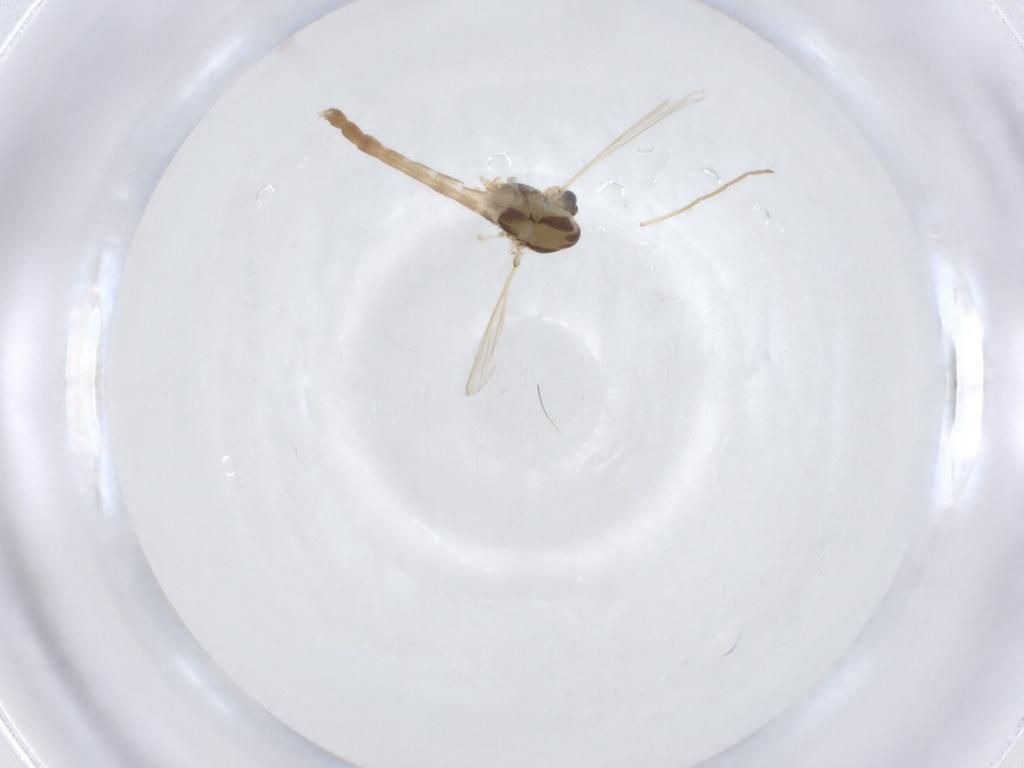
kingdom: Animalia
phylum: Arthropoda
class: Insecta
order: Diptera
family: Chironomidae
